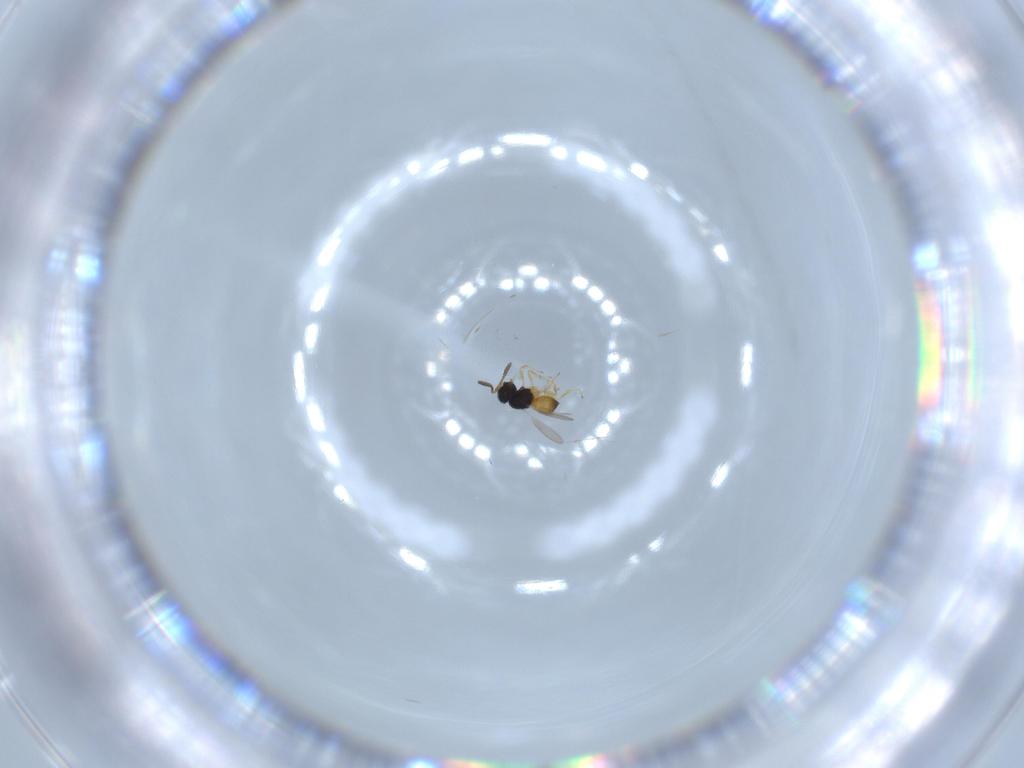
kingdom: Animalia
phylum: Arthropoda
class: Insecta
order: Hymenoptera
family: Scelionidae
